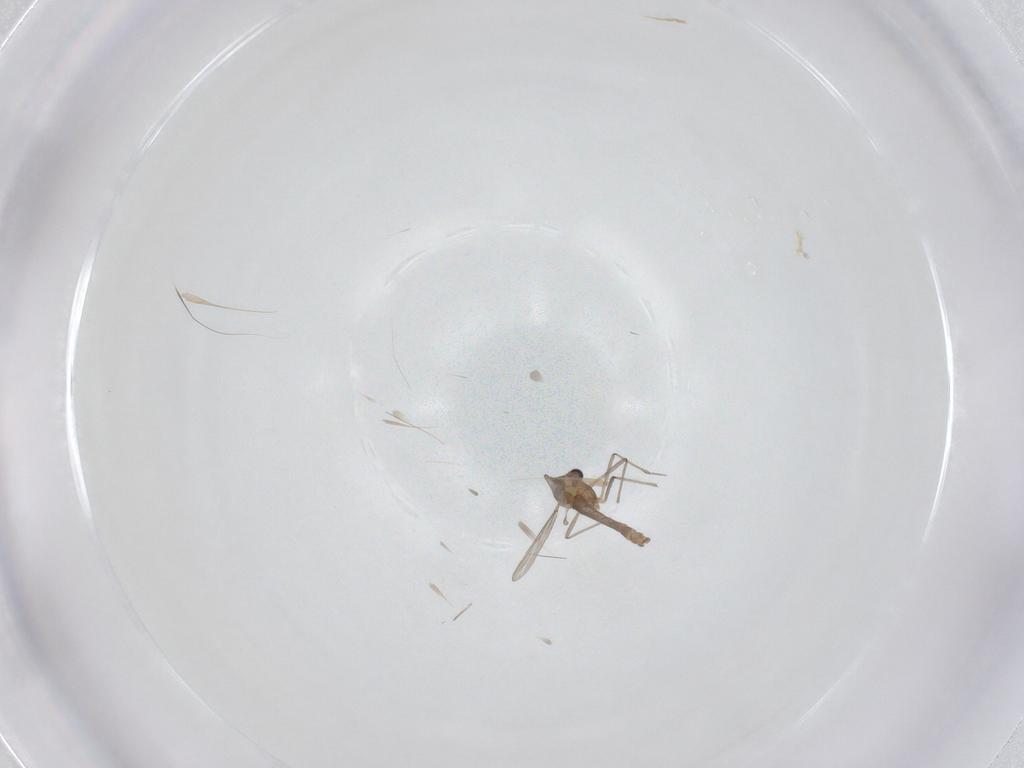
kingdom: Animalia
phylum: Arthropoda
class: Insecta
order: Diptera
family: Chironomidae
